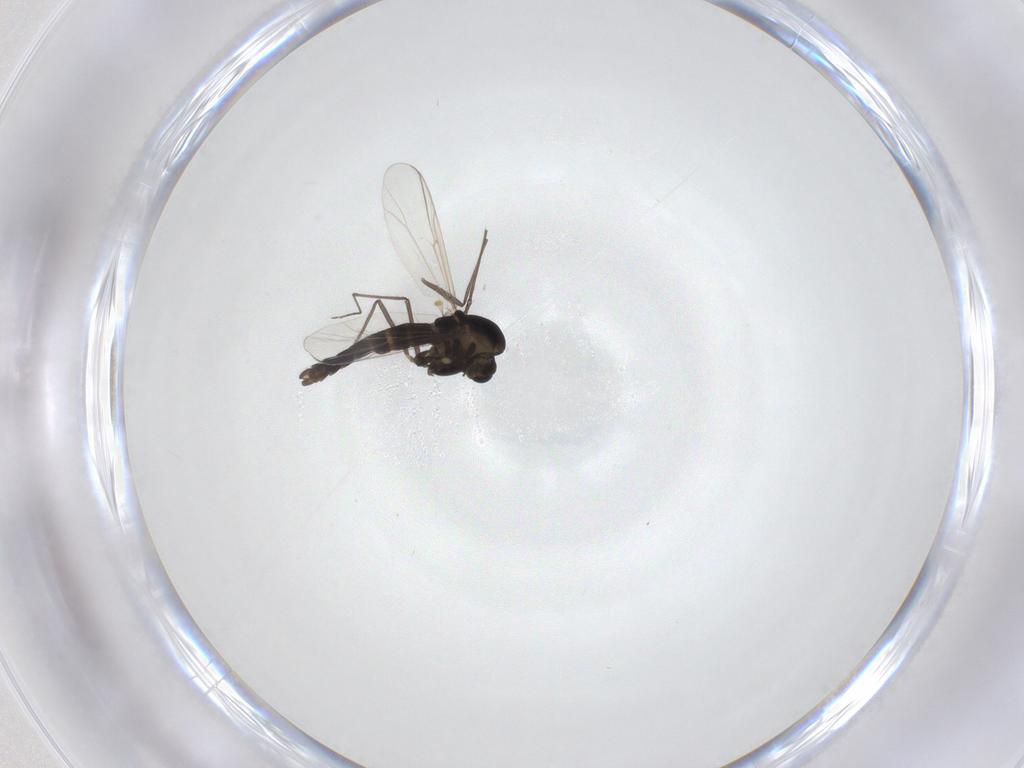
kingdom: Animalia
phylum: Arthropoda
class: Insecta
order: Diptera
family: Chironomidae
